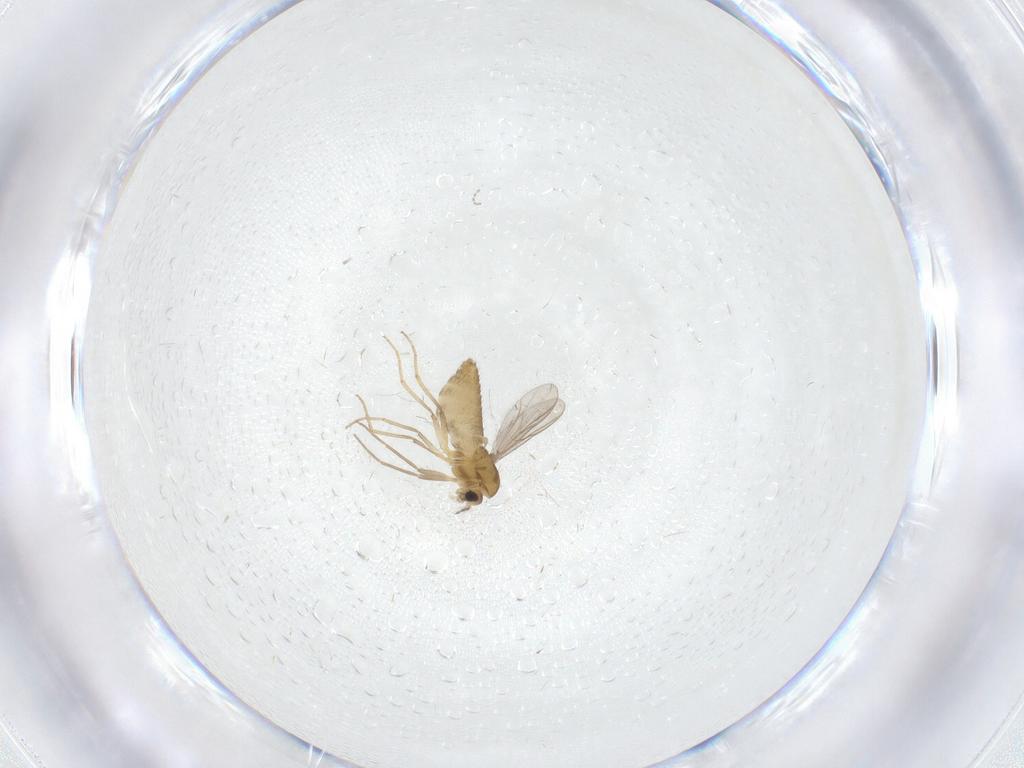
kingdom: Animalia
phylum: Arthropoda
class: Insecta
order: Diptera
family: Chironomidae
